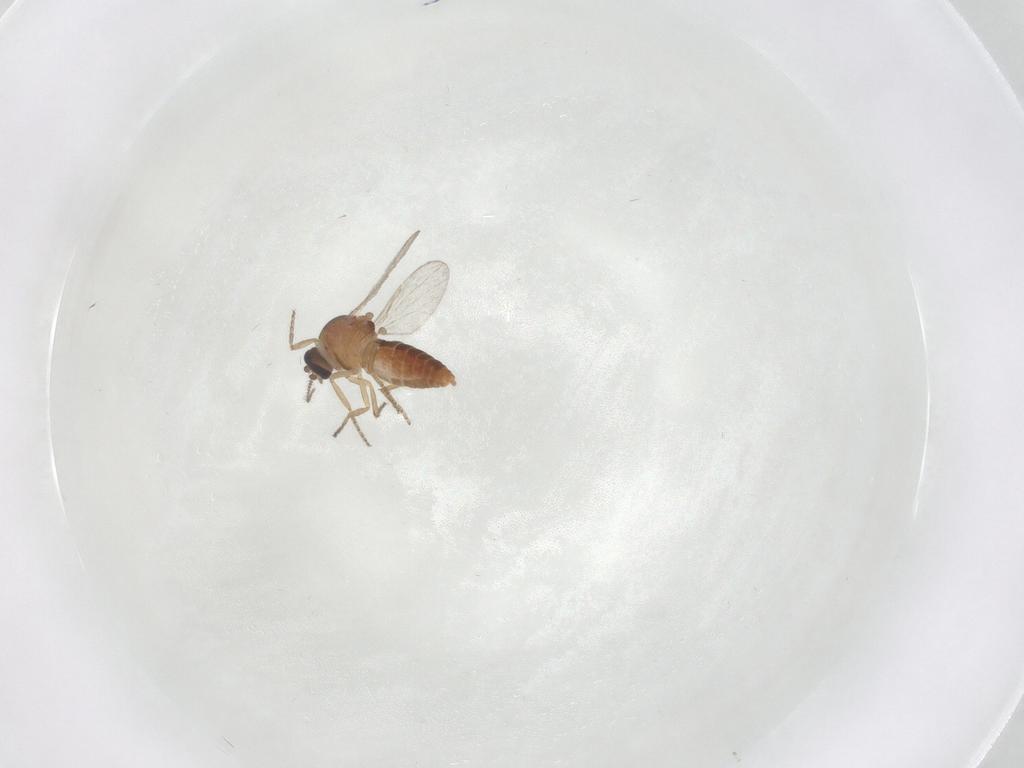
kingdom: Animalia
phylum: Arthropoda
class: Insecta
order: Diptera
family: Ceratopogonidae
